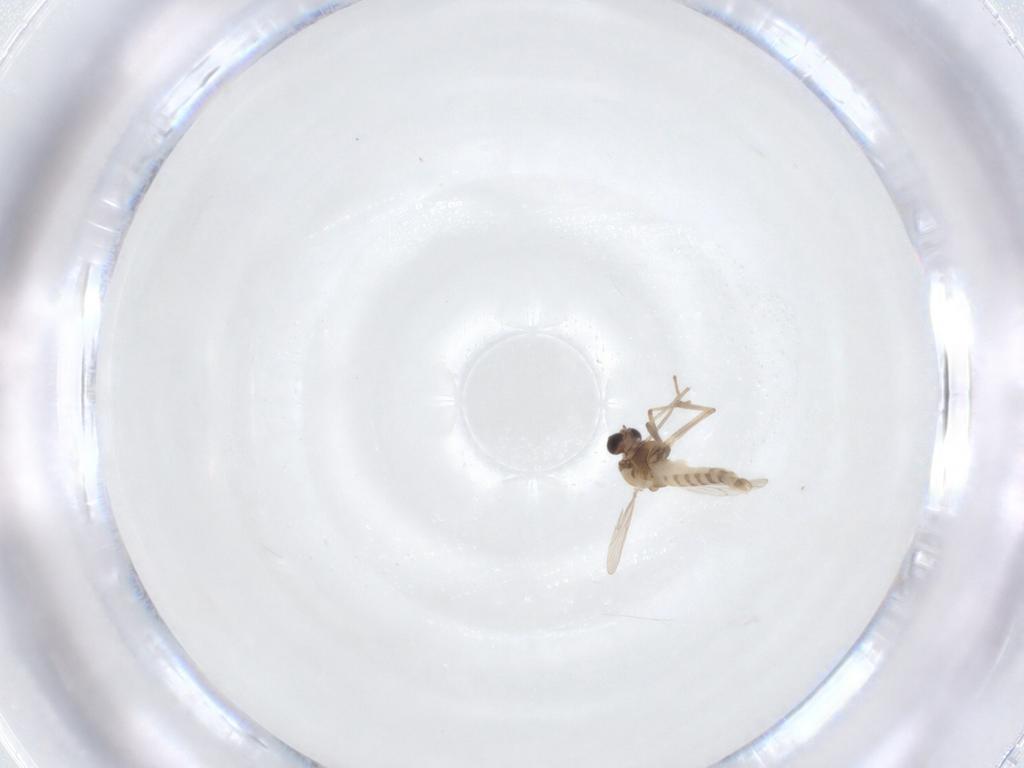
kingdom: Animalia
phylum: Arthropoda
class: Insecta
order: Diptera
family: Chironomidae
